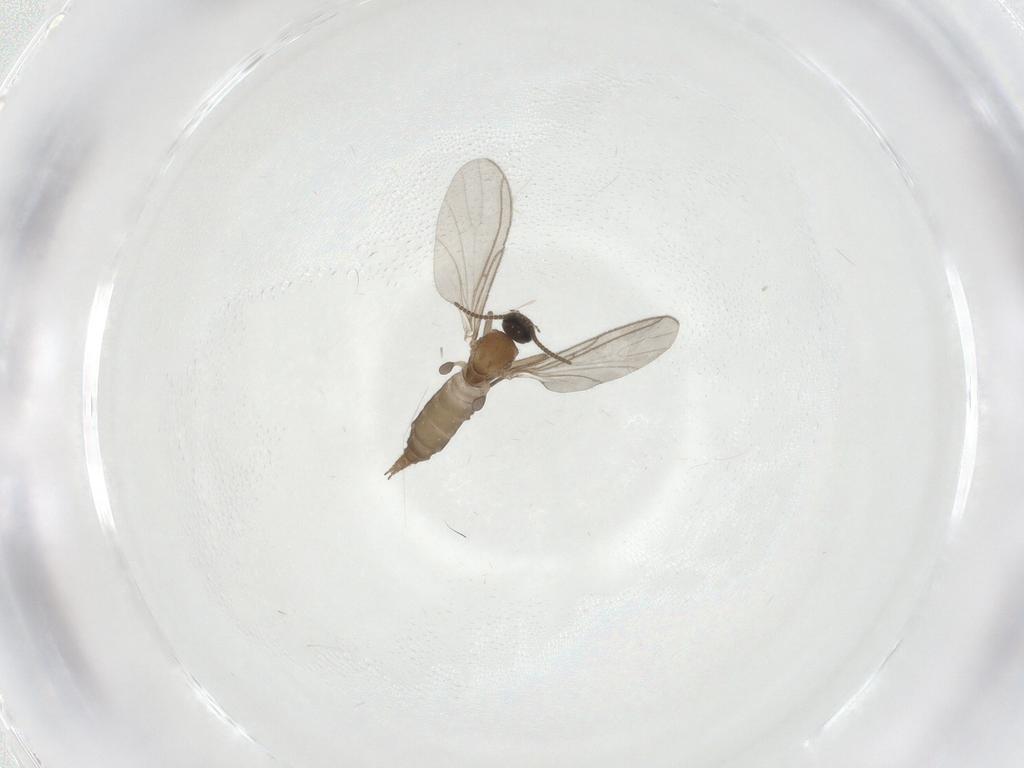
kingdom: Animalia
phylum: Arthropoda
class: Insecta
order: Diptera
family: Sciaridae
